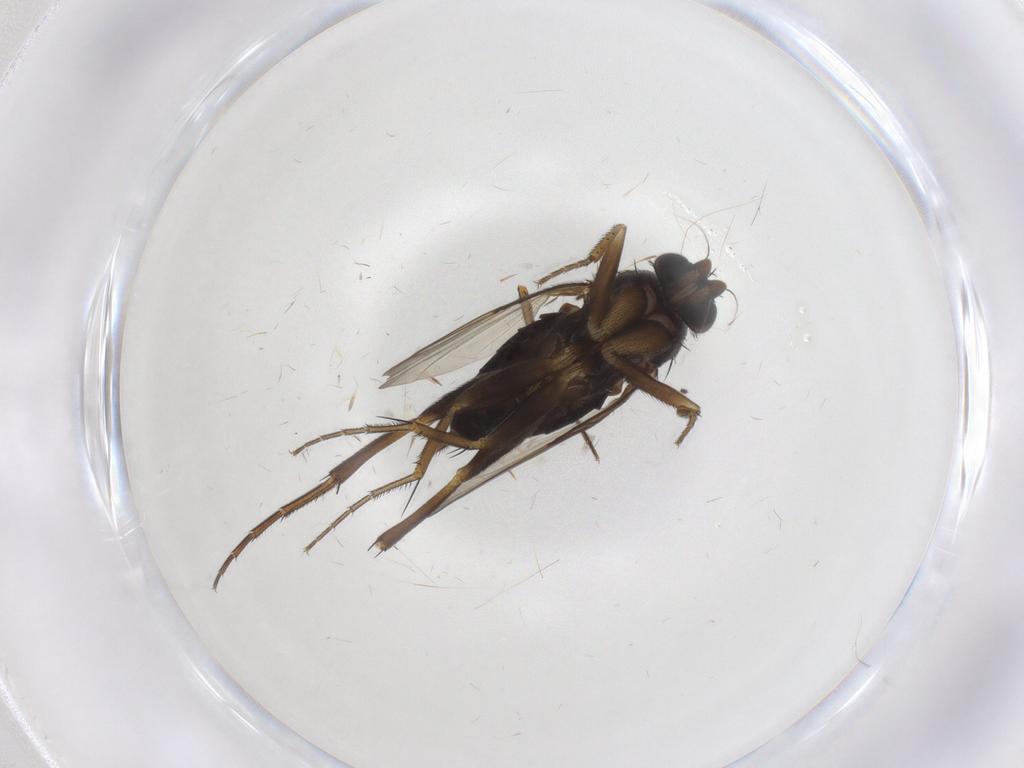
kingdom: Animalia
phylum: Arthropoda
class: Insecta
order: Diptera
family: Phoridae
